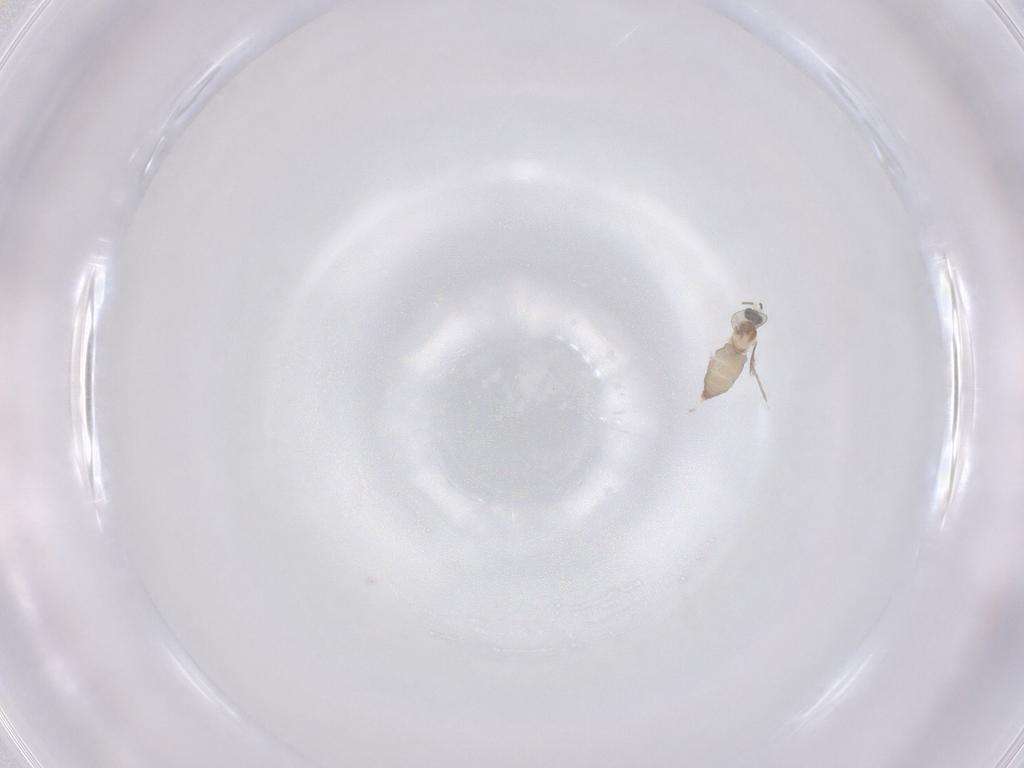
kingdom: Animalia
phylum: Arthropoda
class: Insecta
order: Diptera
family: Chironomidae
